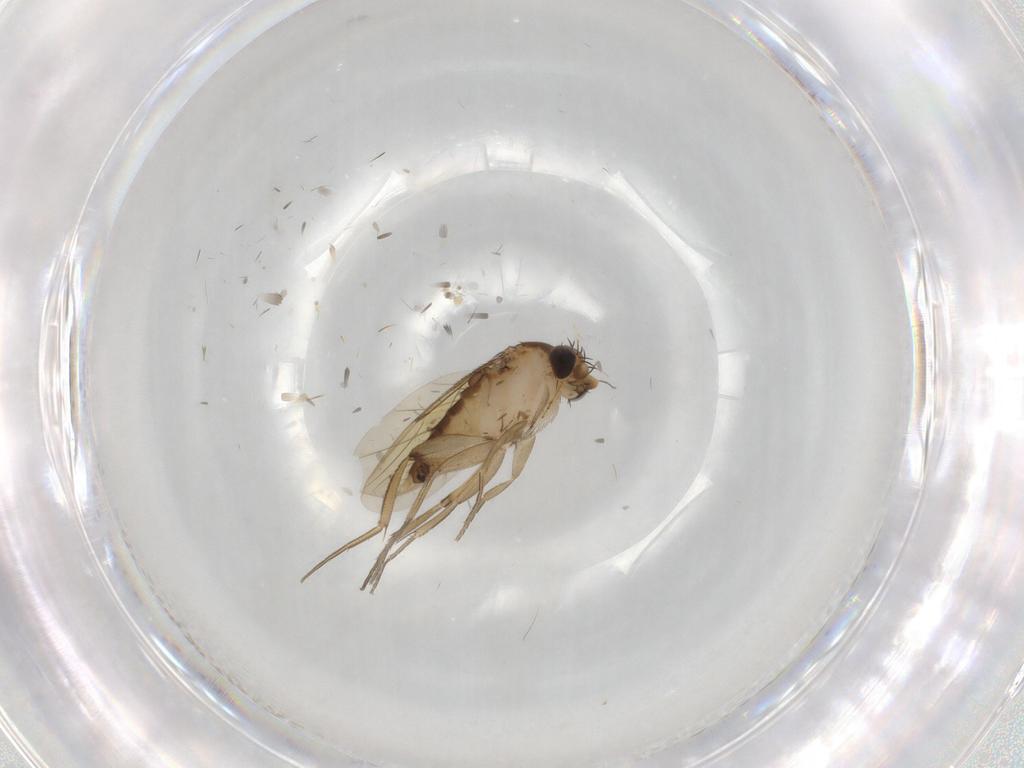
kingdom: Animalia
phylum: Arthropoda
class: Insecta
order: Diptera
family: Phoridae
